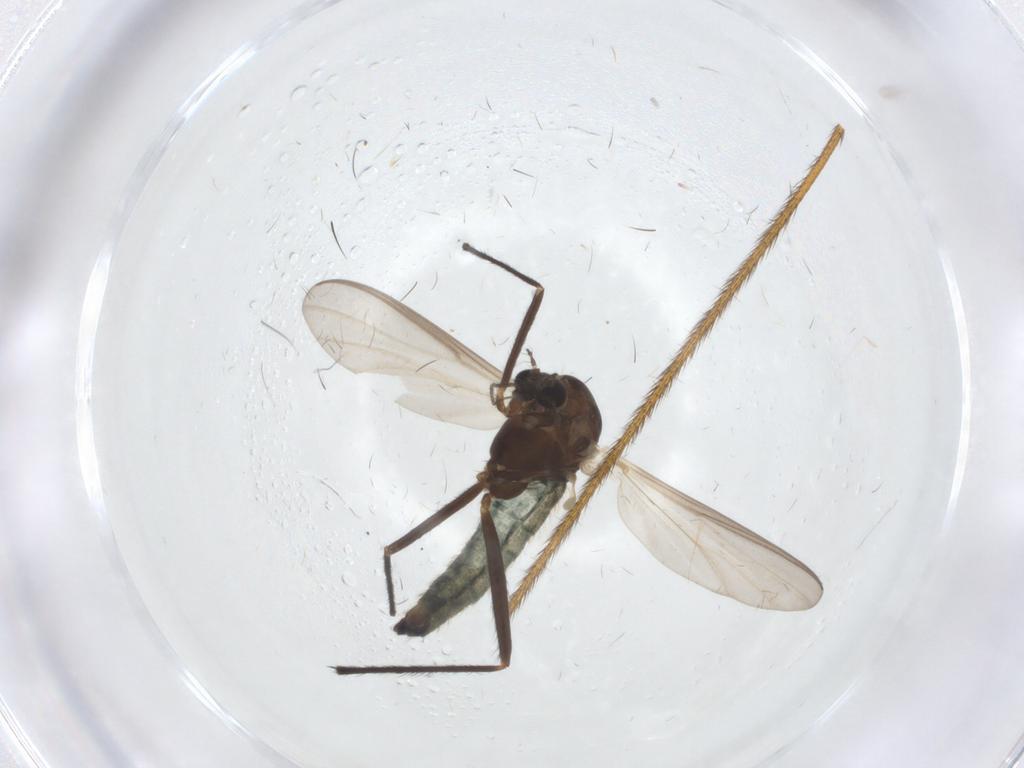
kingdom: Animalia
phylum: Arthropoda
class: Insecta
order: Diptera
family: Chironomidae
